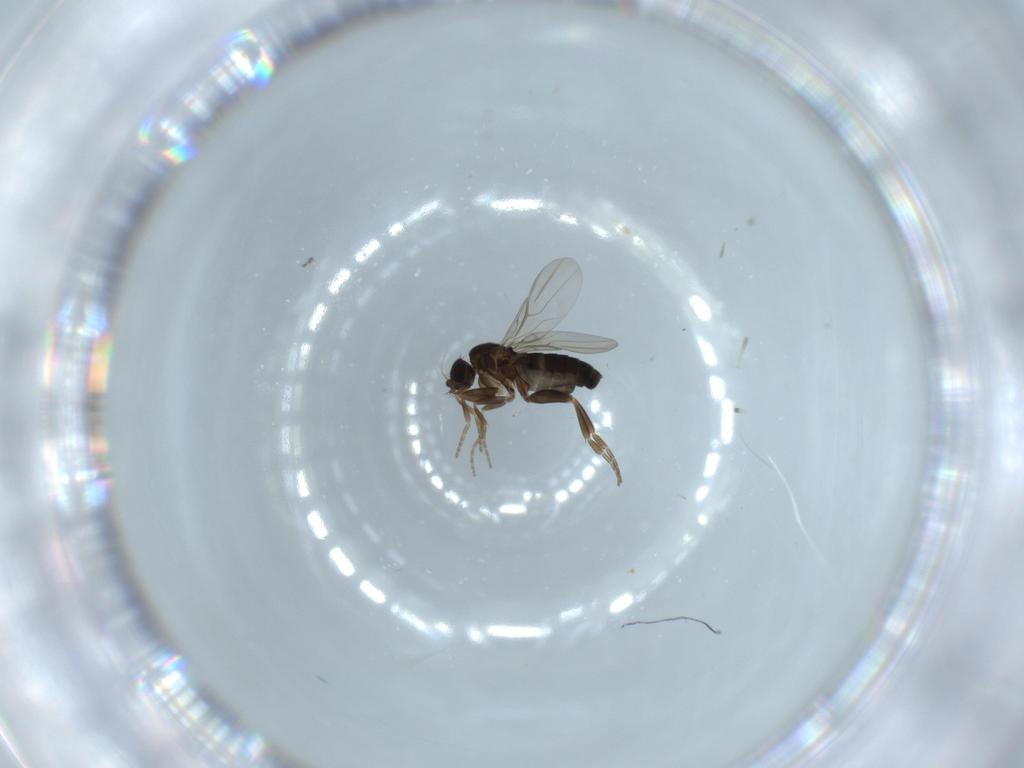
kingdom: Animalia
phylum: Arthropoda
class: Insecta
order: Diptera
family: Phoridae
